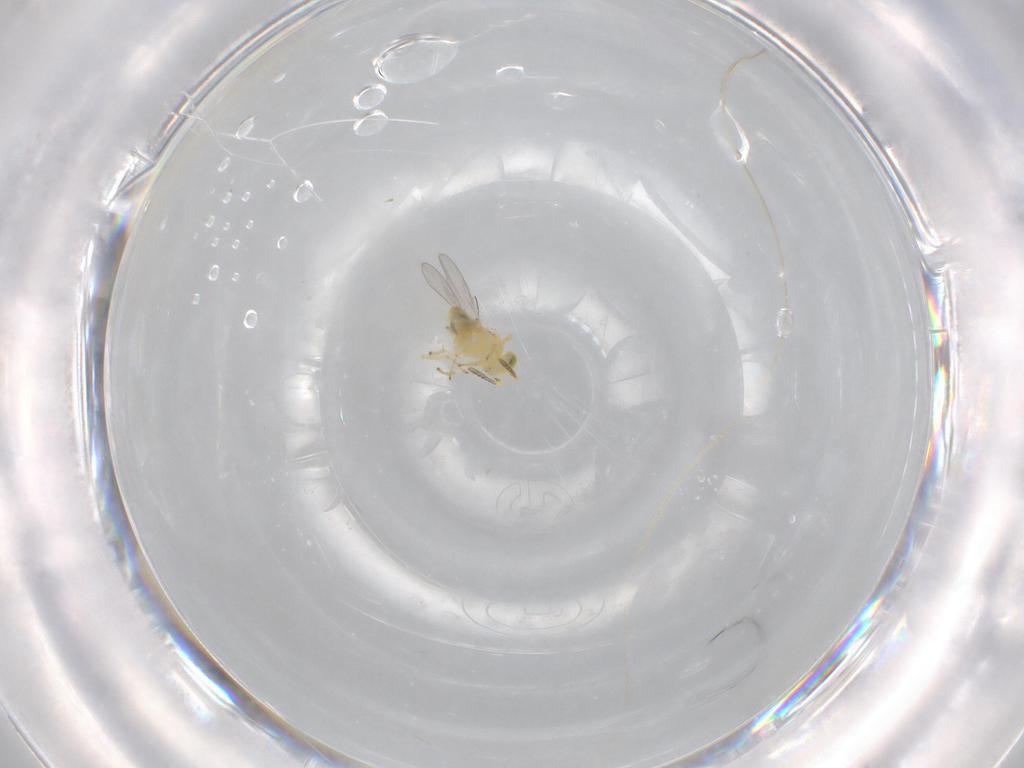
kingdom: Animalia
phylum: Arthropoda
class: Insecta
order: Hymenoptera
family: Encyrtidae
